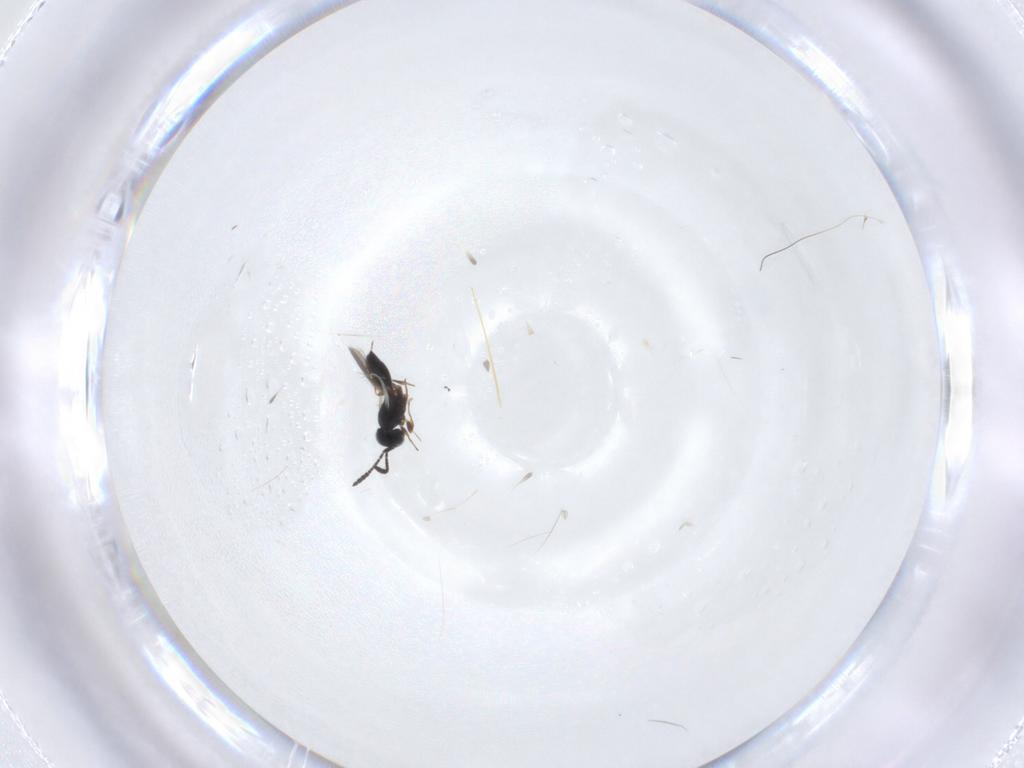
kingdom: Animalia
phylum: Arthropoda
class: Insecta
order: Hymenoptera
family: Scelionidae
